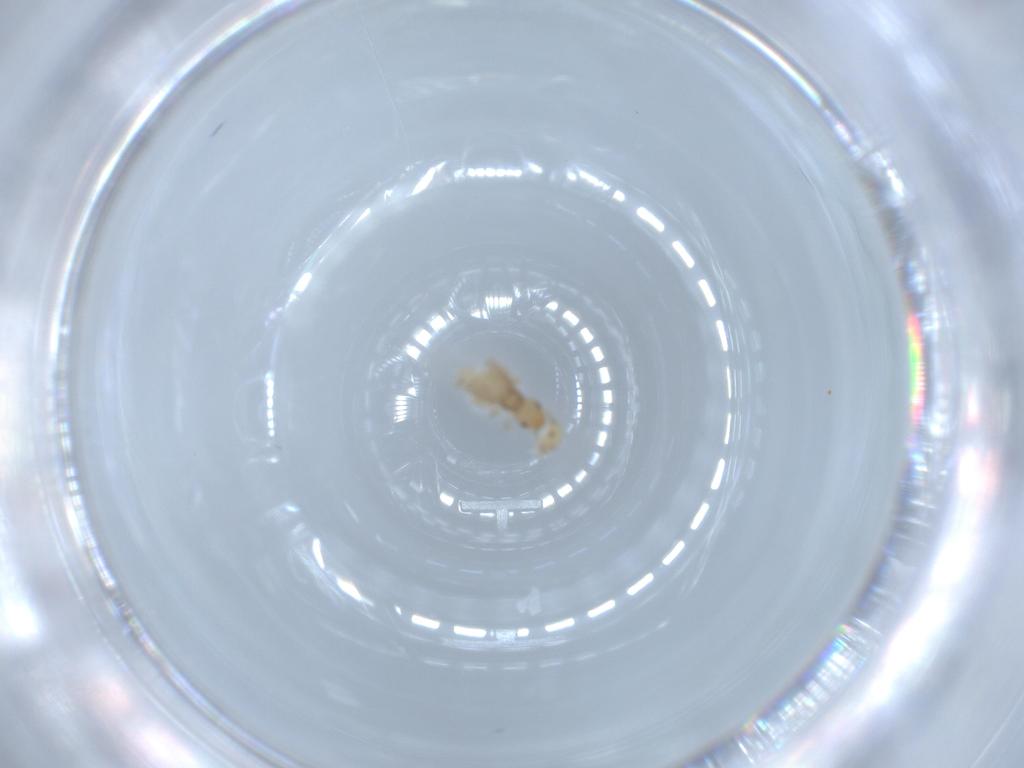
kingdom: Animalia
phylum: Arthropoda
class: Insecta
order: Psocodea
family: Liposcelididae
